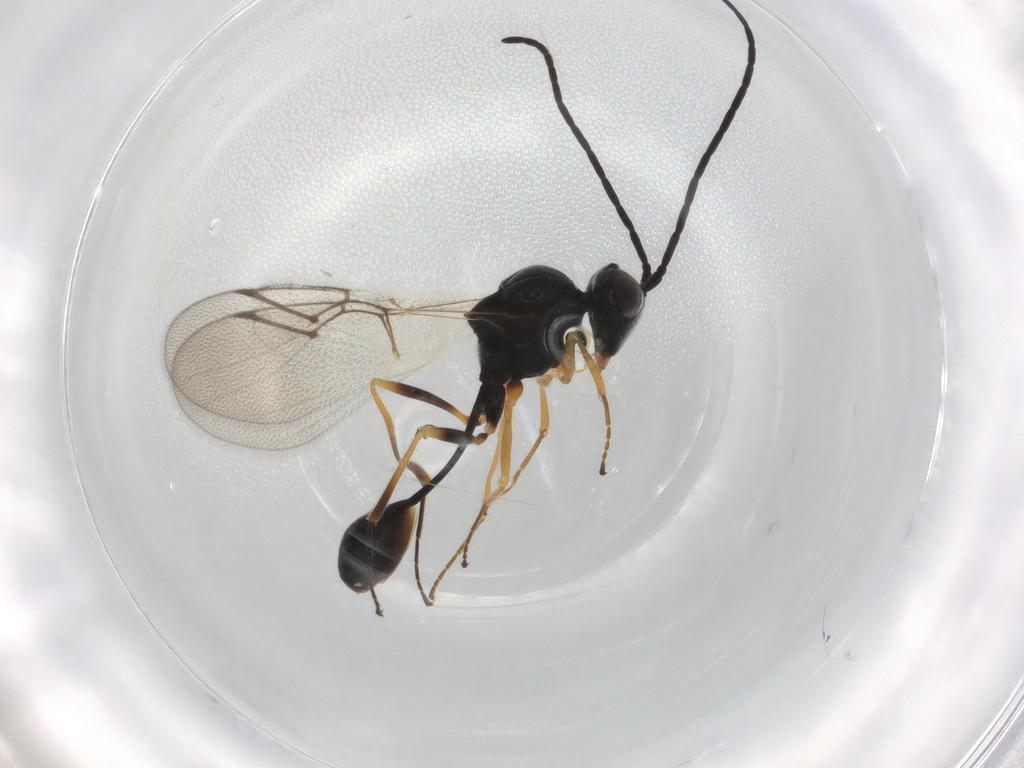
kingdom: Animalia
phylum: Arthropoda
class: Insecta
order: Hymenoptera
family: Figitidae
